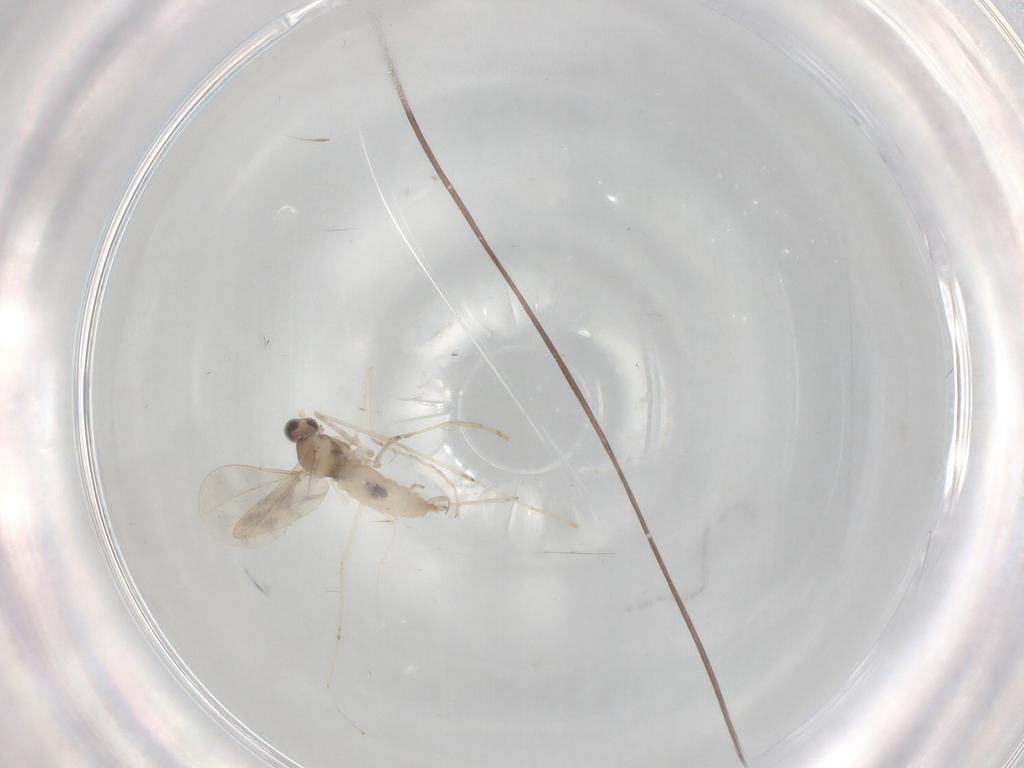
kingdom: Animalia
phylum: Arthropoda
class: Insecta
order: Diptera
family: Cecidomyiidae
